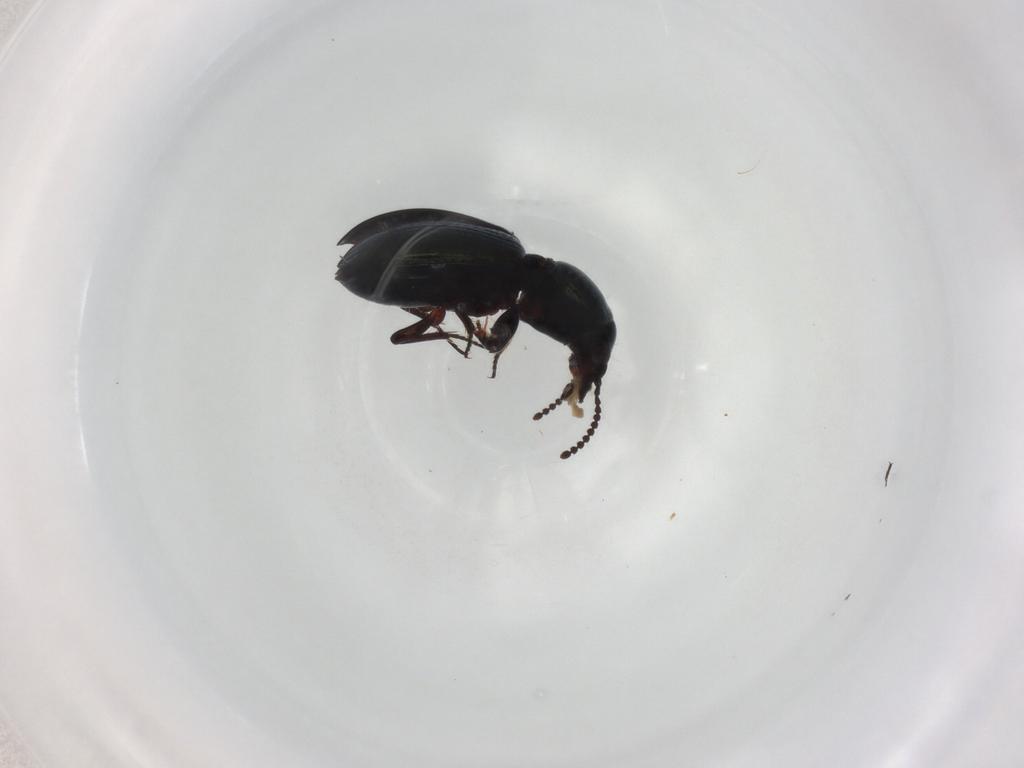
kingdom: Animalia
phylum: Arthropoda
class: Insecta
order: Coleoptera
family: Carabidae
